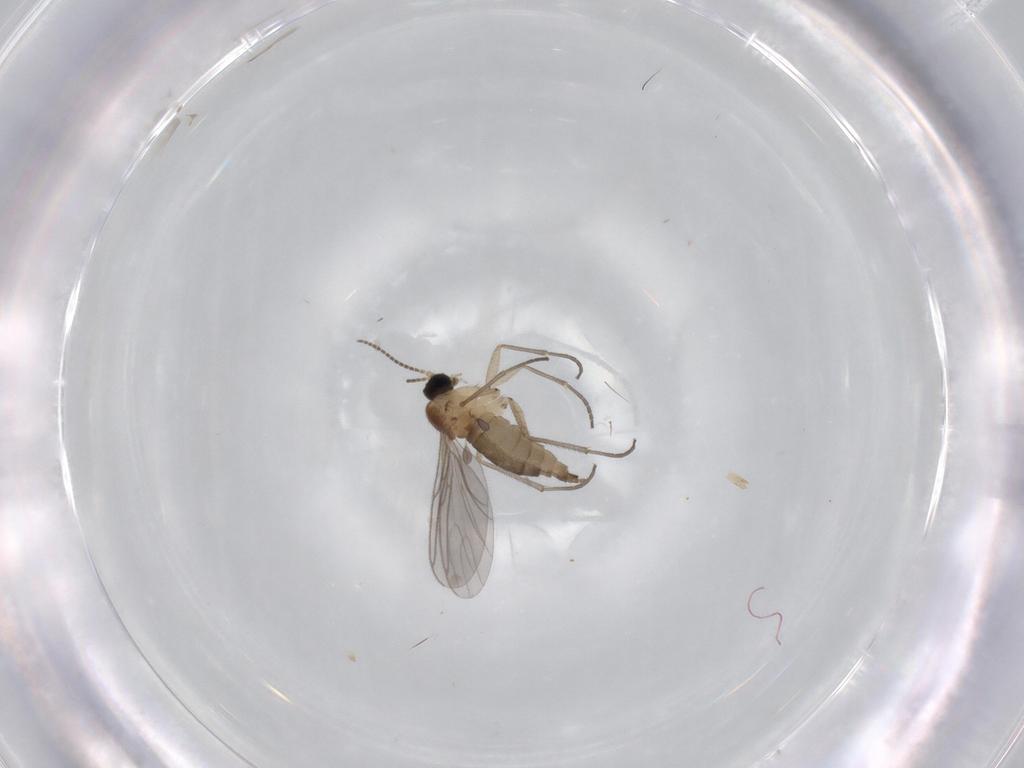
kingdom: Animalia
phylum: Arthropoda
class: Insecta
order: Diptera
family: Sciaridae
